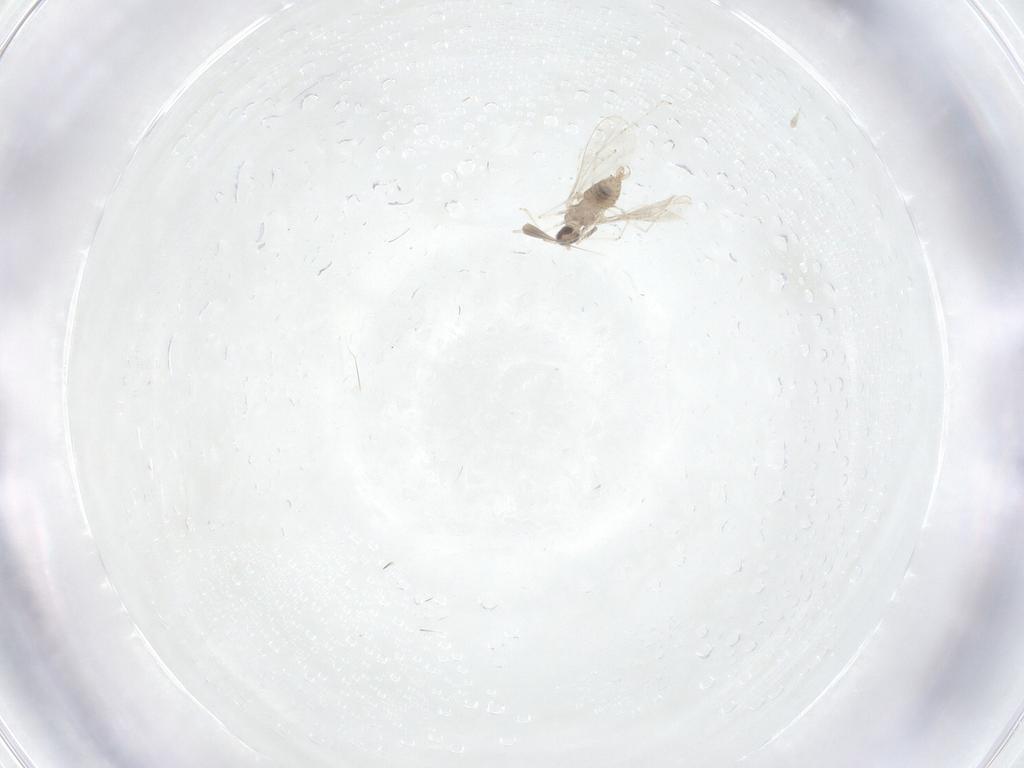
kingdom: Animalia
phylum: Arthropoda
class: Insecta
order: Diptera
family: Cecidomyiidae
